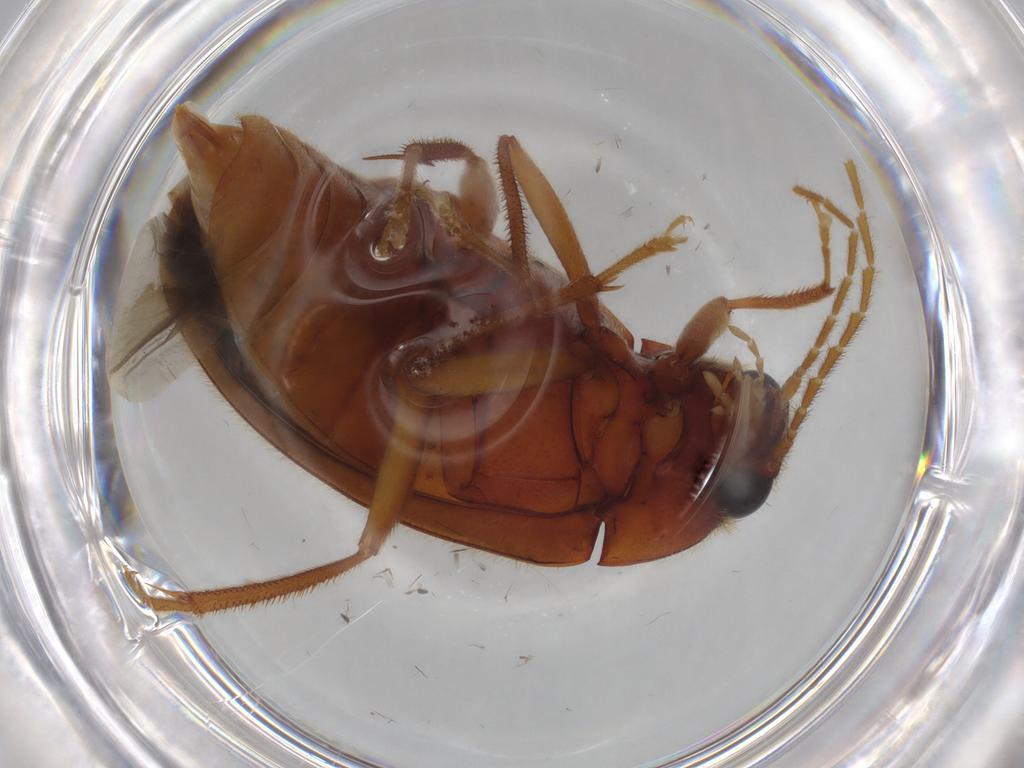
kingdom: Animalia
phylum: Arthropoda
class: Insecta
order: Coleoptera
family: Ptilodactylidae
